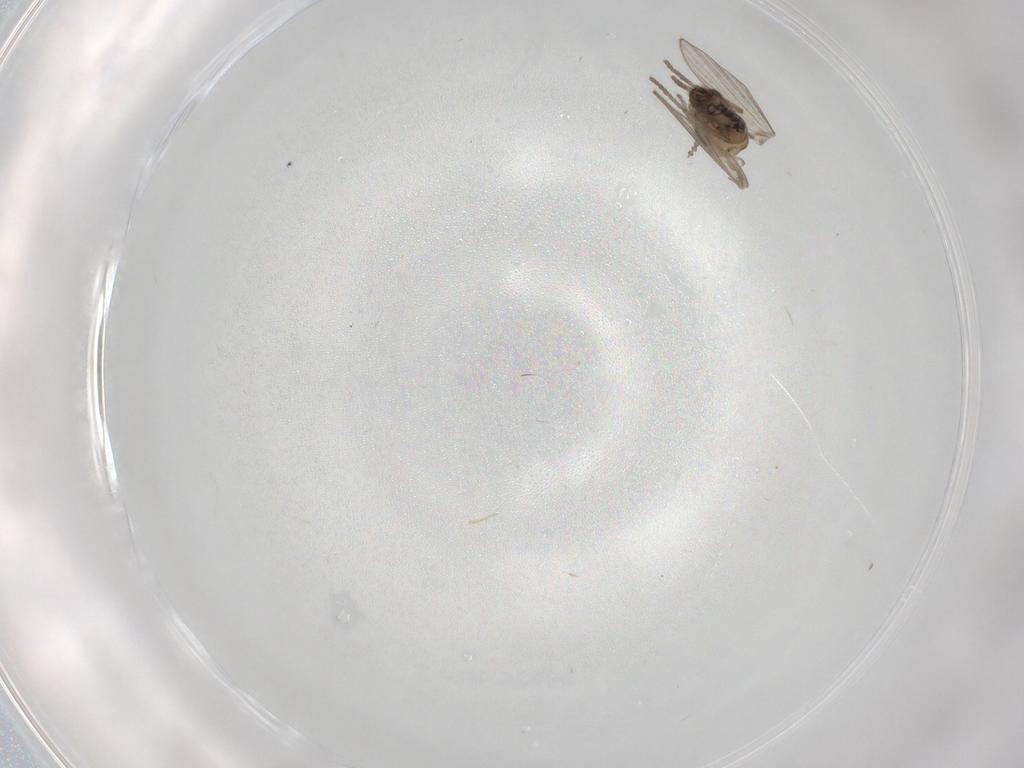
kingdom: Animalia
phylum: Arthropoda
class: Insecta
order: Diptera
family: Psychodidae
